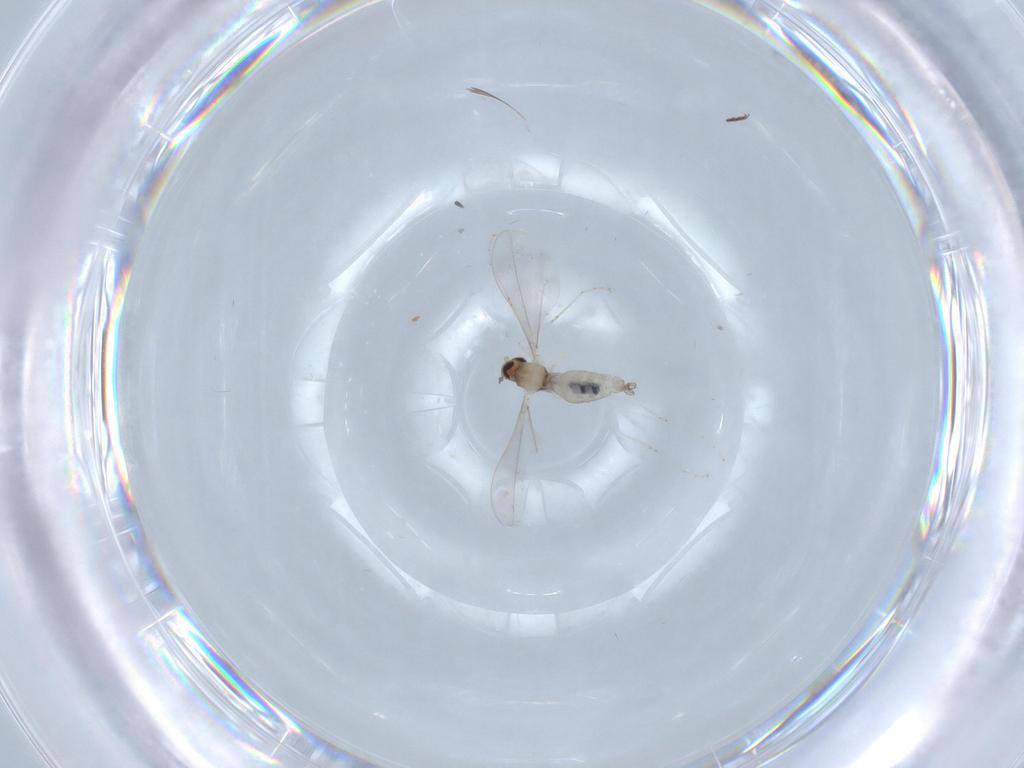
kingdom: Animalia
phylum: Arthropoda
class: Insecta
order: Diptera
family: Cecidomyiidae
